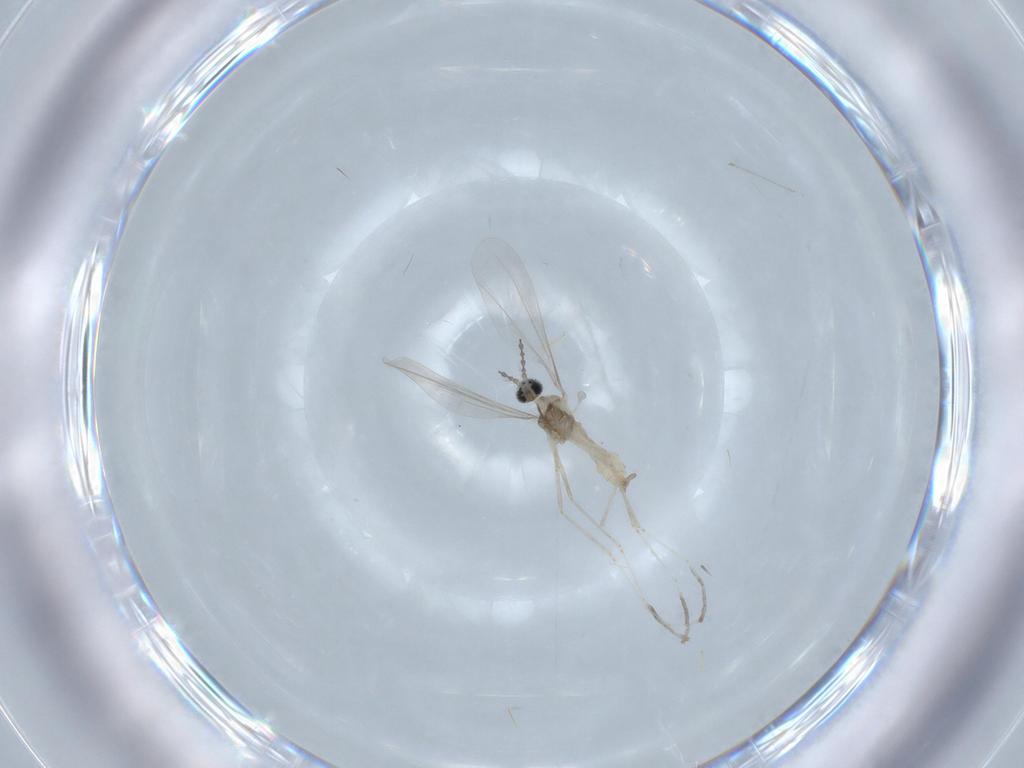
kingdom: Animalia
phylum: Arthropoda
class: Insecta
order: Diptera
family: Cecidomyiidae
